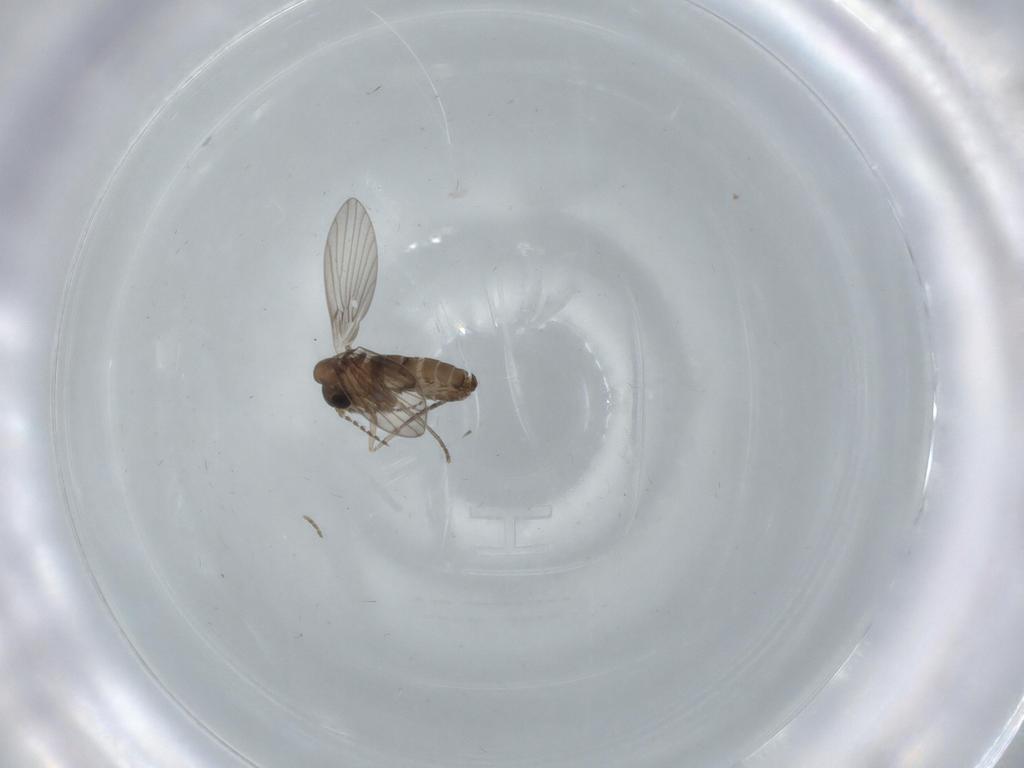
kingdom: Animalia
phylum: Arthropoda
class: Insecta
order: Diptera
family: Psychodidae
